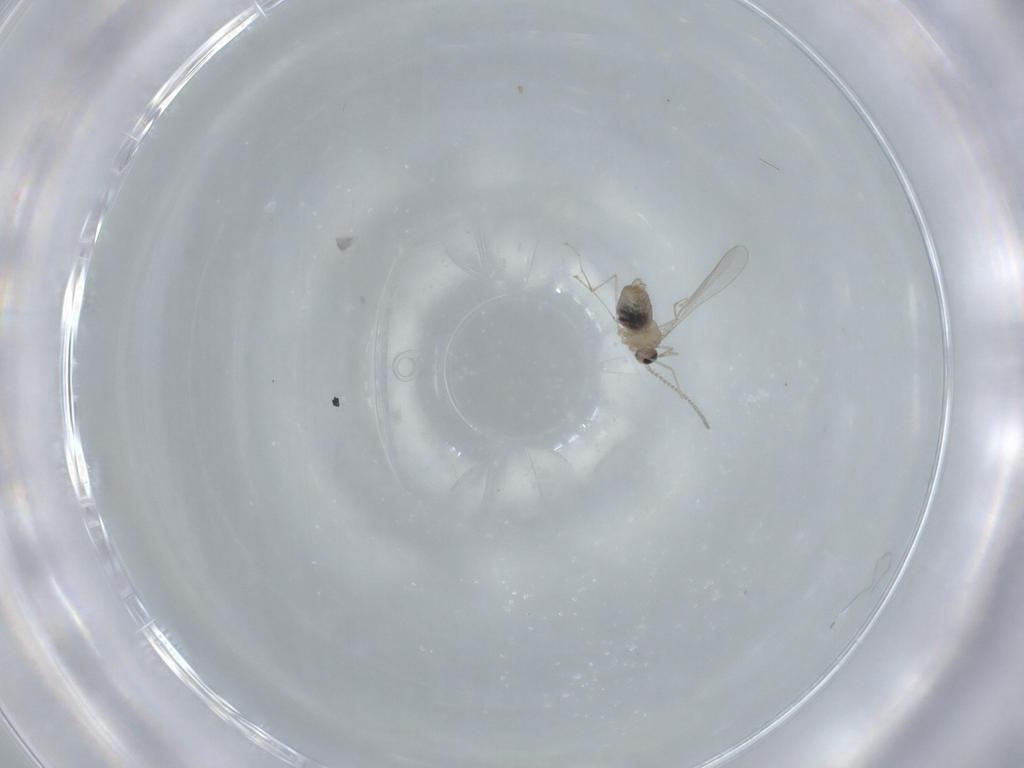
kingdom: Animalia
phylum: Arthropoda
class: Insecta
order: Diptera
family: Cecidomyiidae
